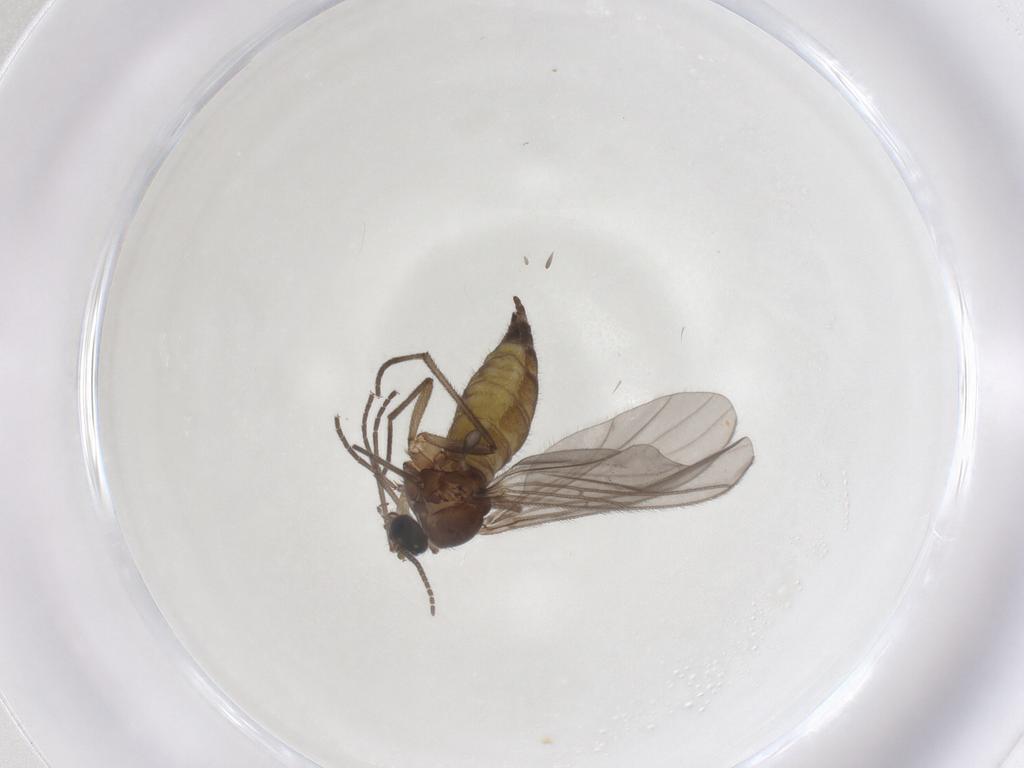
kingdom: Animalia
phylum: Arthropoda
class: Insecta
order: Diptera
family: Sciaridae
